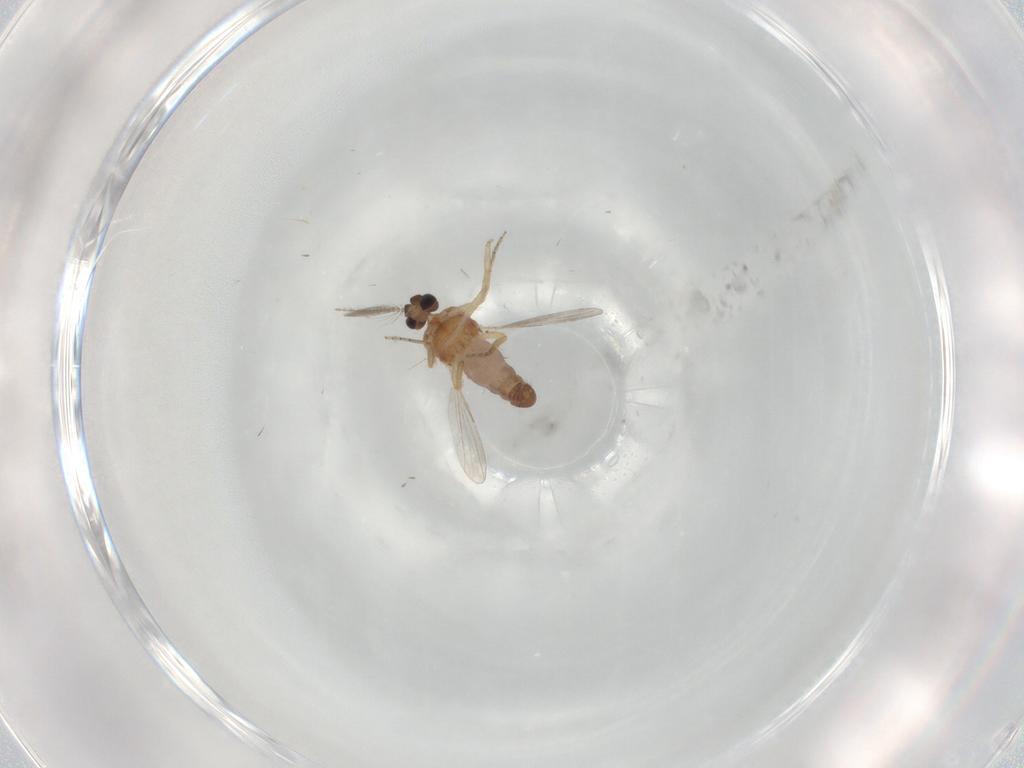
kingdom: Animalia
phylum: Arthropoda
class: Insecta
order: Diptera
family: Ceratopogonidae
